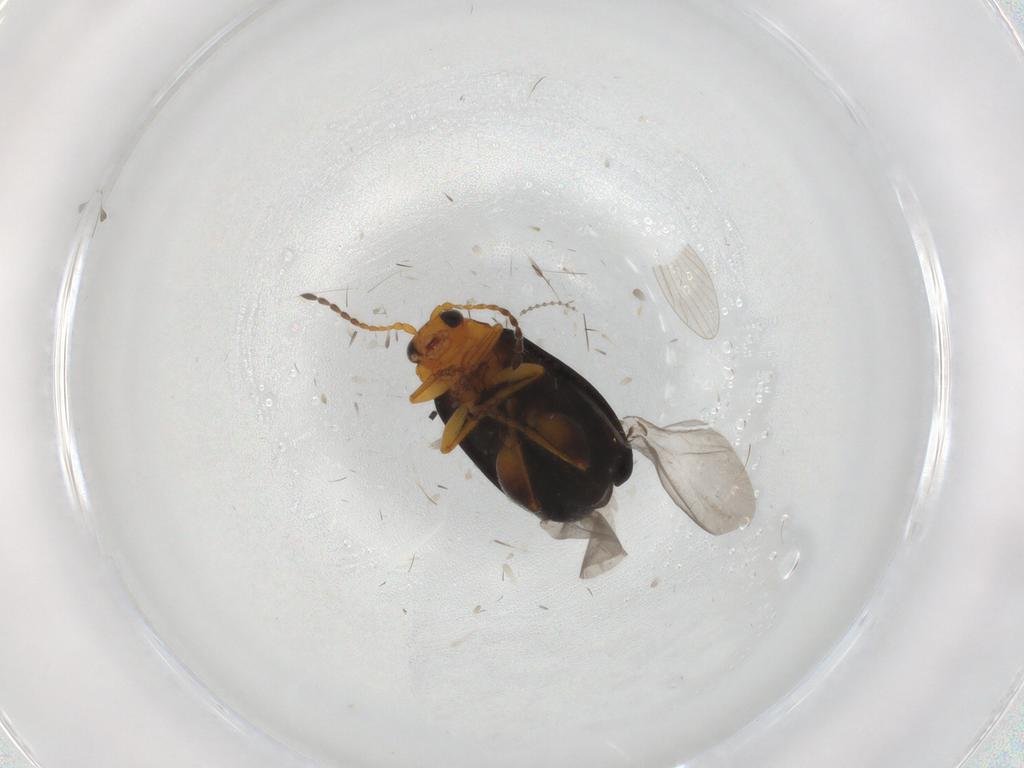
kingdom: Animalia
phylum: Arthropoda
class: Insecta
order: Coleoptera
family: Chrysomelidae
